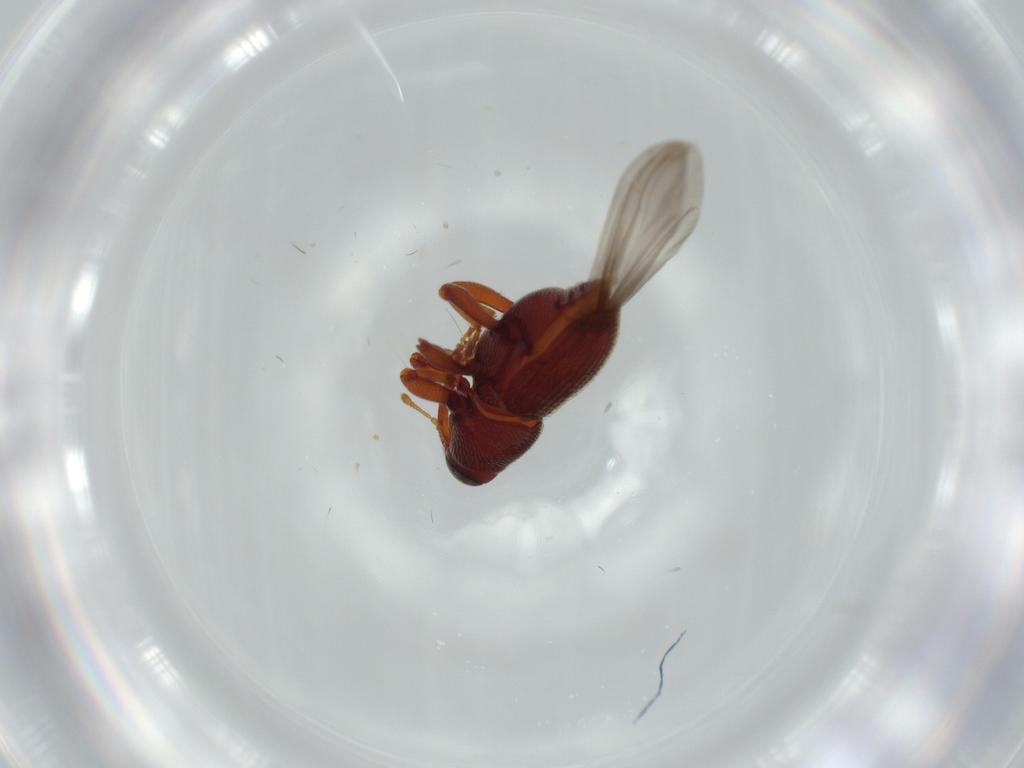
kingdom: Animalia
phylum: Arthropoda
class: Insecta
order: Coleoptera
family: Curculionidae
